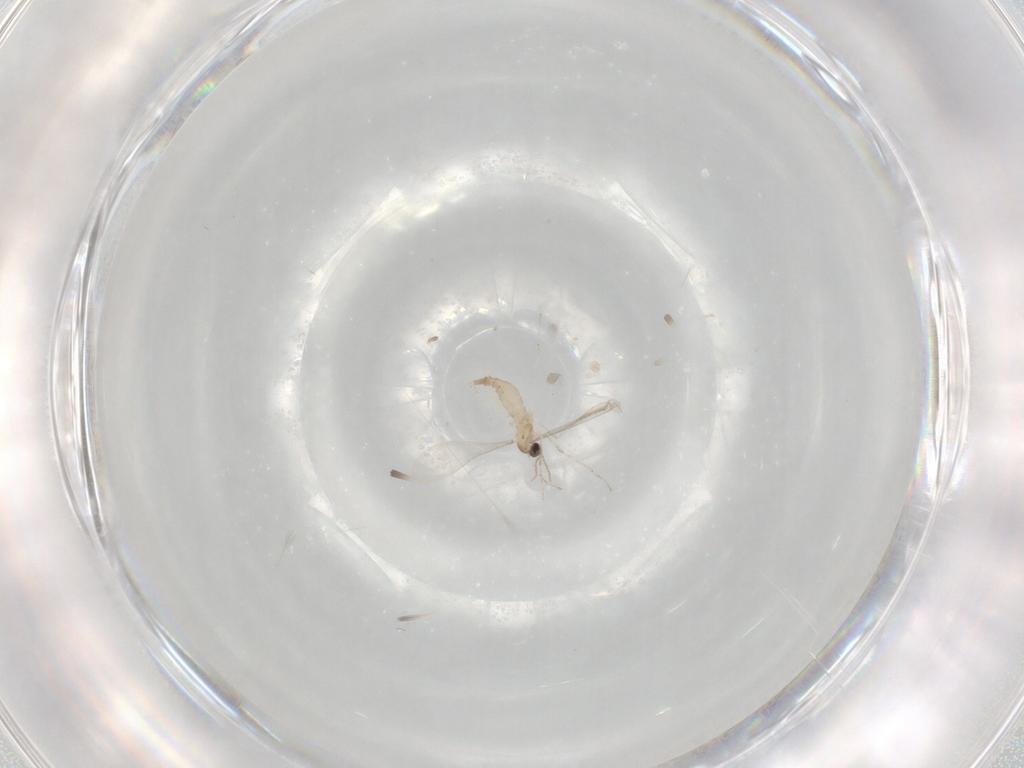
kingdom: Animalia
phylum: Arthropoda
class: Insecta
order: Diptera
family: Cecidomyiidae
